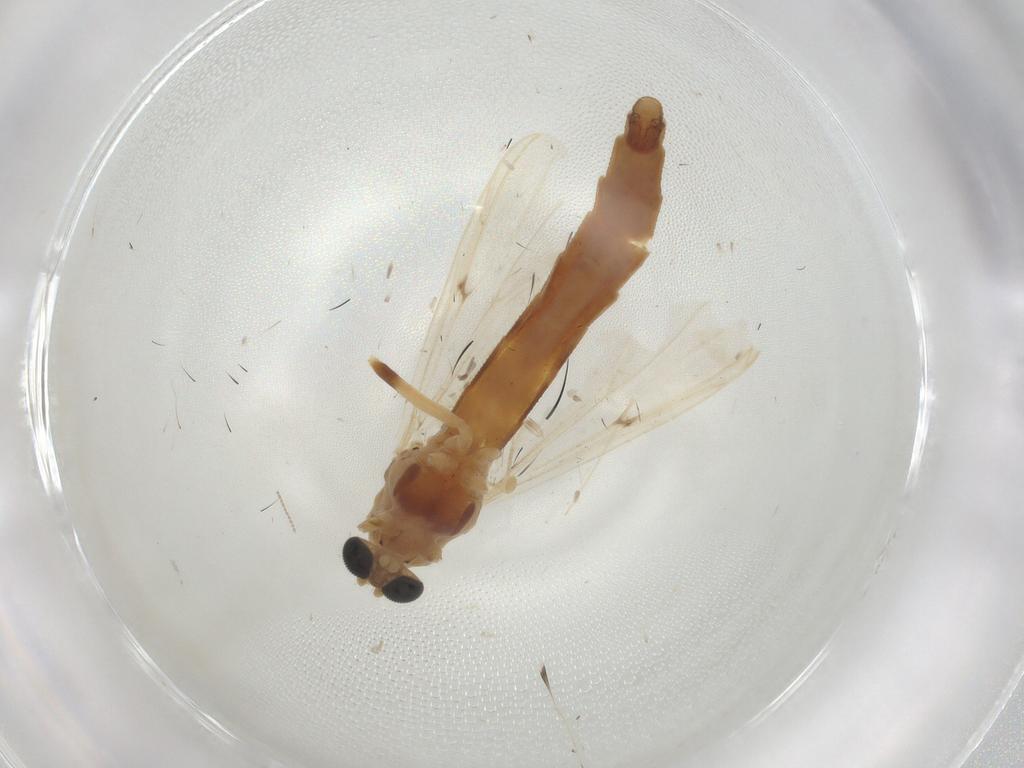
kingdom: Animalia
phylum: Arthropoda
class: Insecta
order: Diptera
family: Chironomidae
